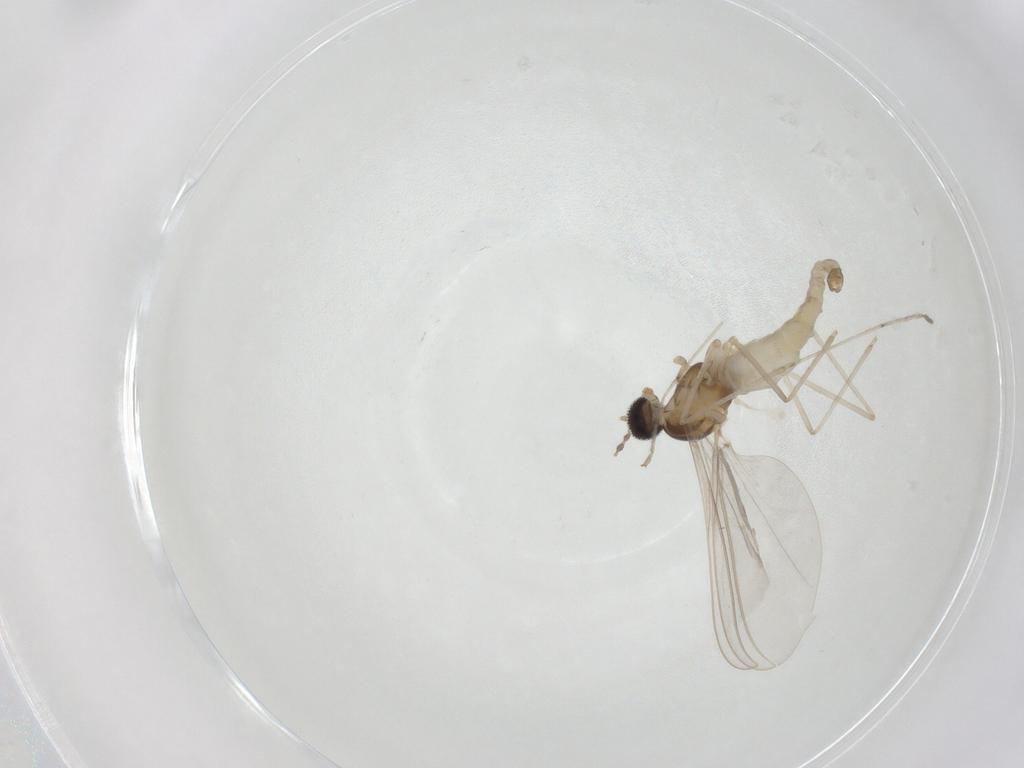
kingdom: Animalia
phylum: Arthropoda
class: Insecta
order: Diptera
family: Cecidomyiidae
